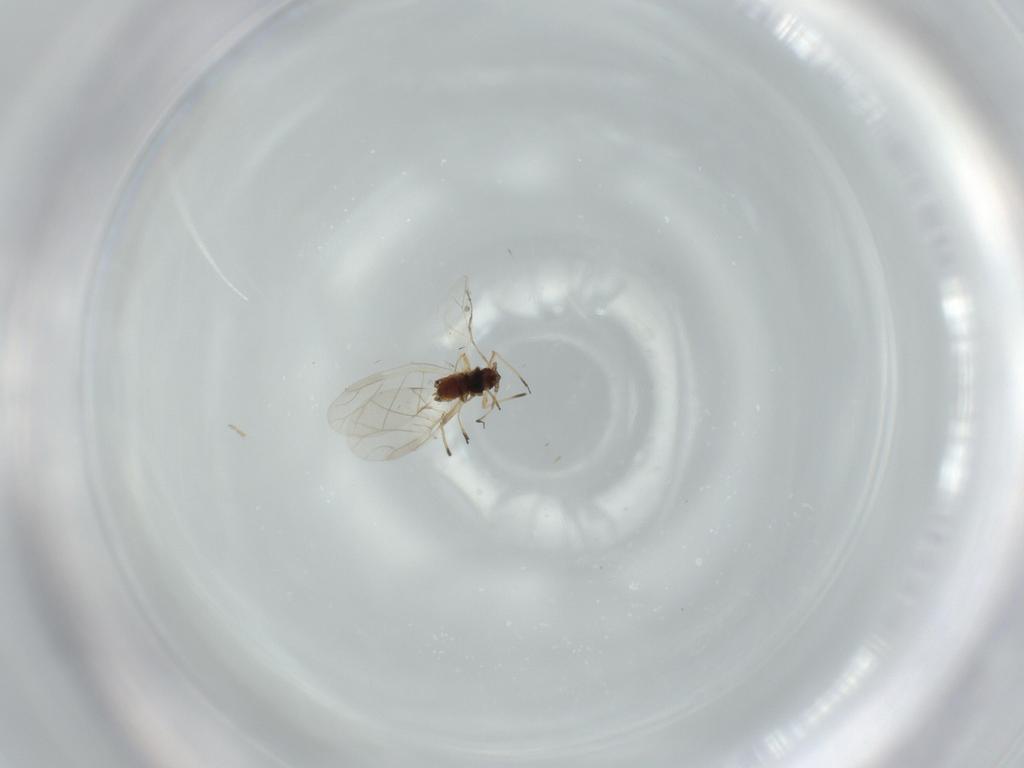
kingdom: Animalia
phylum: Arthropoda
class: Insecta
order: Hemiptera
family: Aphididae
